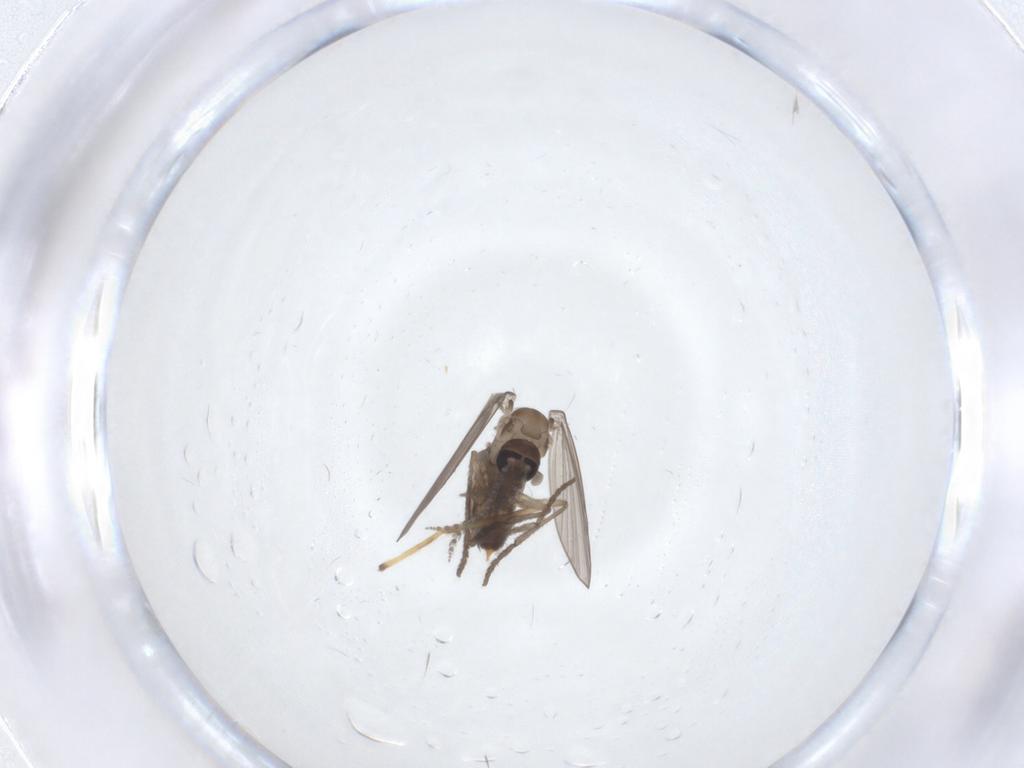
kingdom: Animalia
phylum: Arthropoda
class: Insecta
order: Diptera
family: Psychodidae
